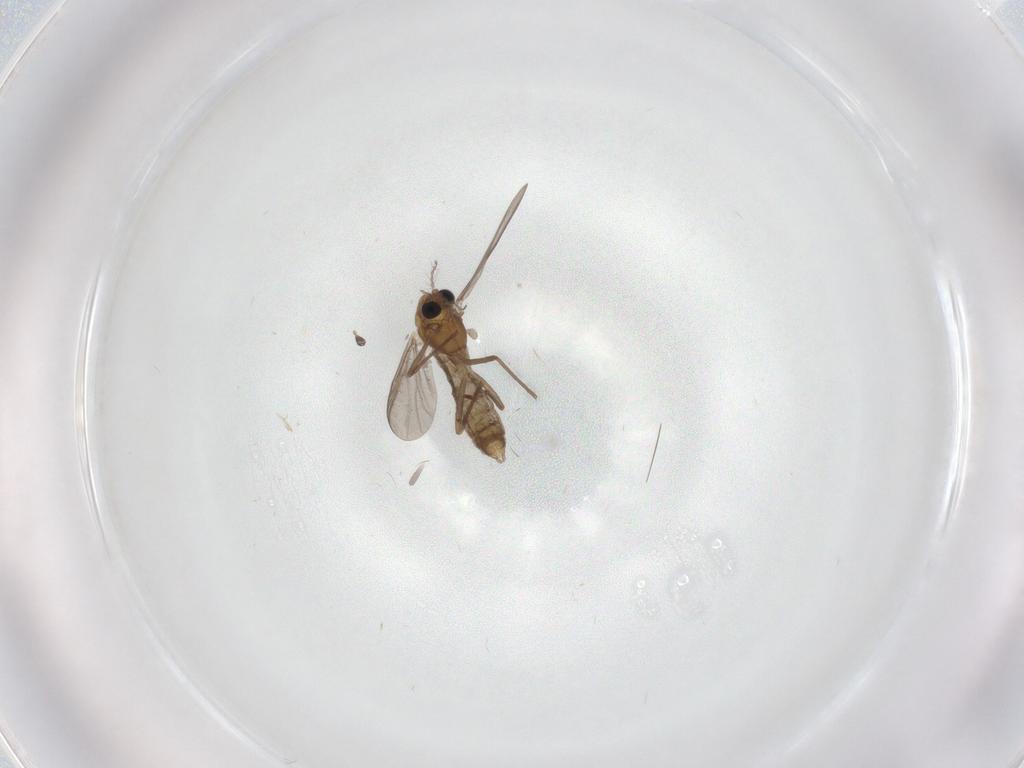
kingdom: Animalia
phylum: Arthropoda
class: Insecta
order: Diptera
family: Chironomidae
